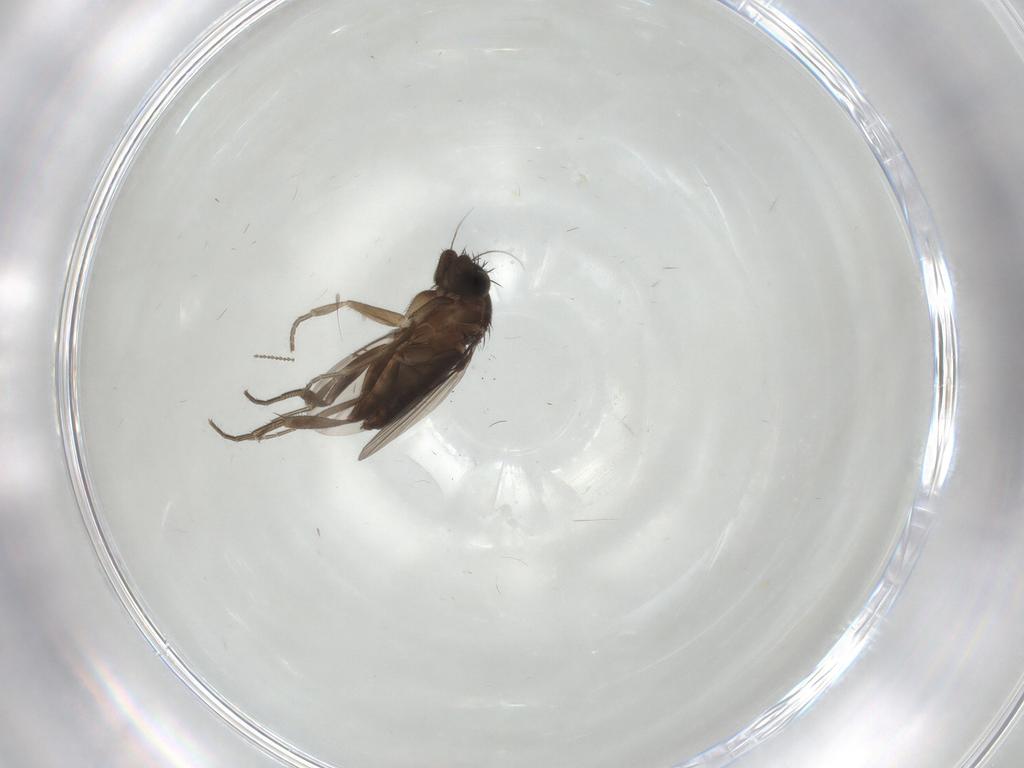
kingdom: Animalia
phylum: Arthropoda
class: Insecta
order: Diptera
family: Phoridae
